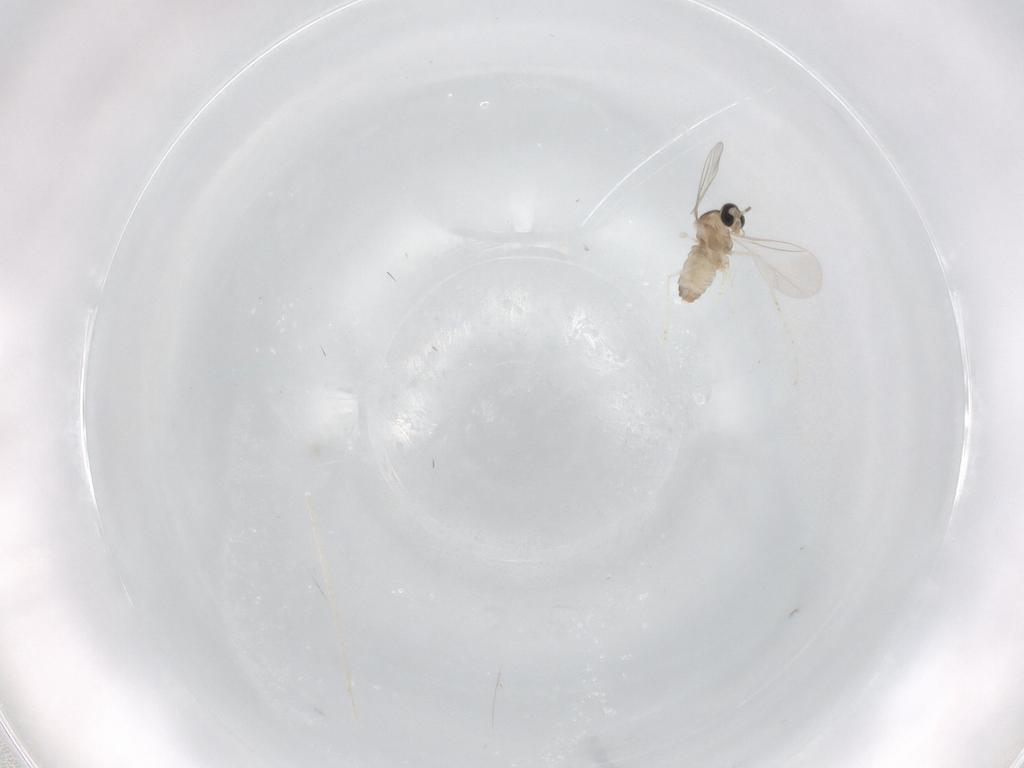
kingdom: Animalia
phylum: Arthropoda
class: Insecta
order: Diptera
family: Cecidomyiidae
